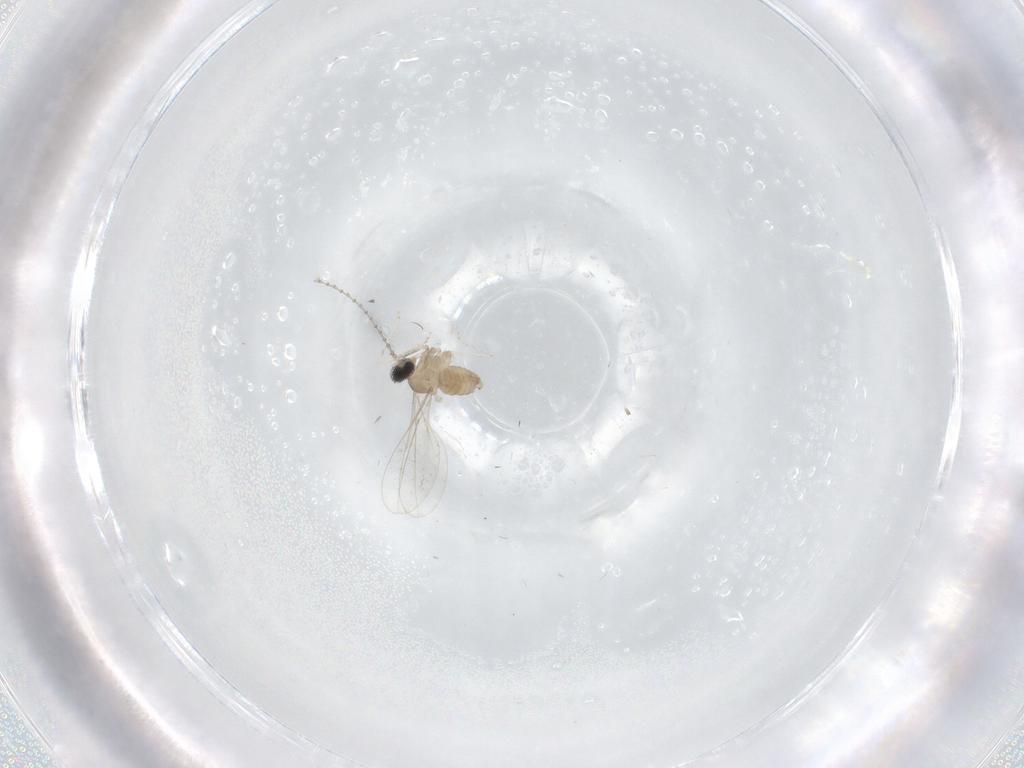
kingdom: Animalia
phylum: Arthropoda
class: Insecta
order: Diptera
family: Cecidomyiidae
